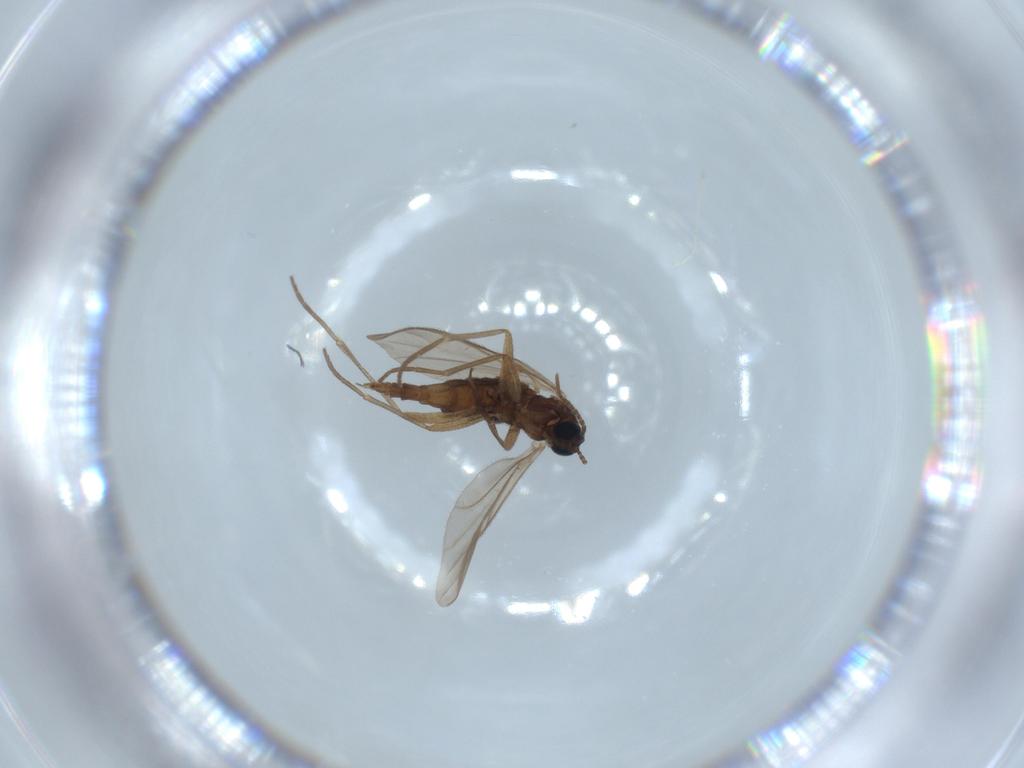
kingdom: Animalia
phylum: Arthropoda
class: Insecta
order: Diptera
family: Sciaridae
